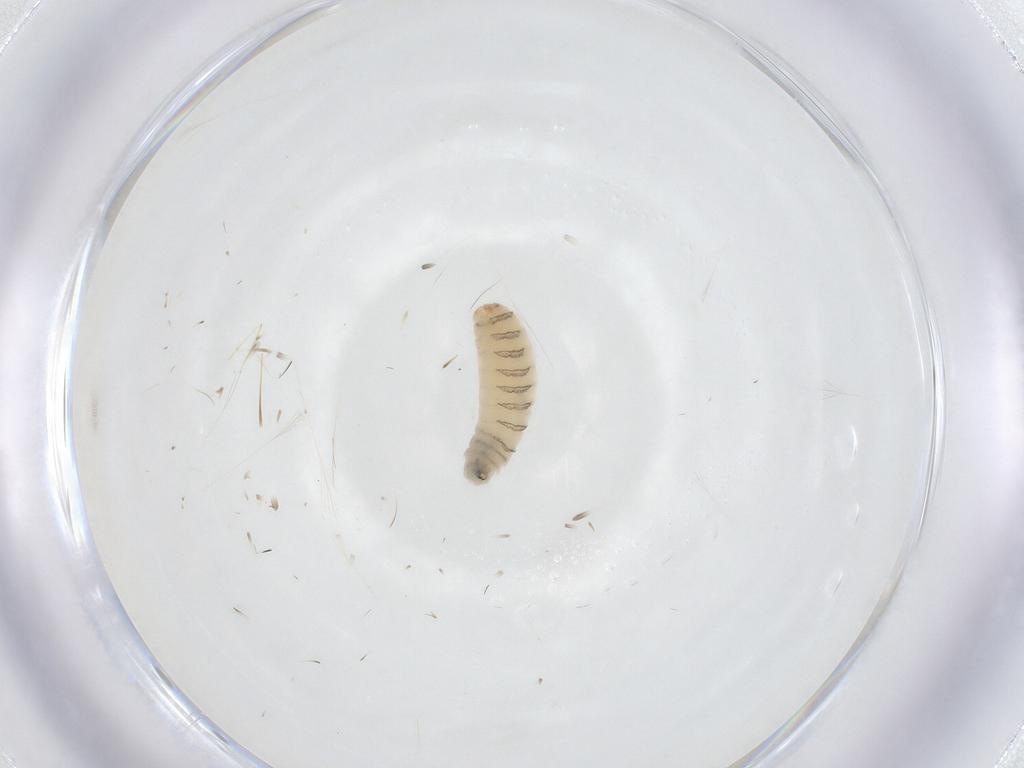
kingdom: Animalia
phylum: Arthropoda
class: Insecta
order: Diptera
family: Sarcophagidae
